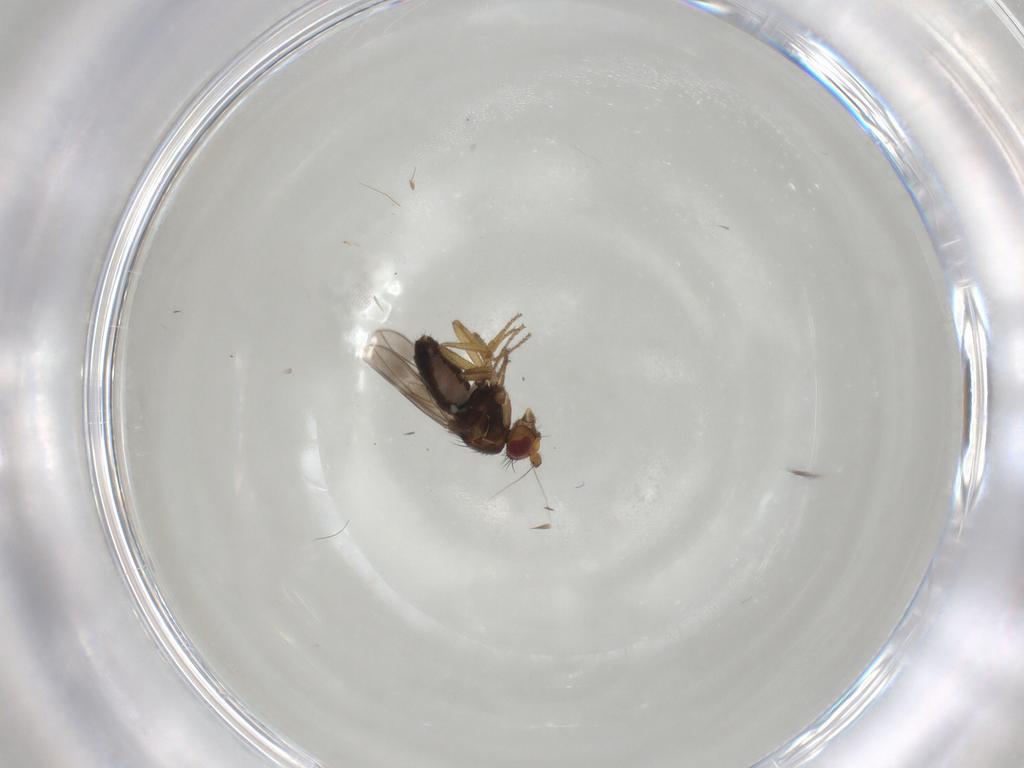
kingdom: Animalia
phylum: Arthropoda
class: Insecta
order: Diptera
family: Sphaeroceridae
